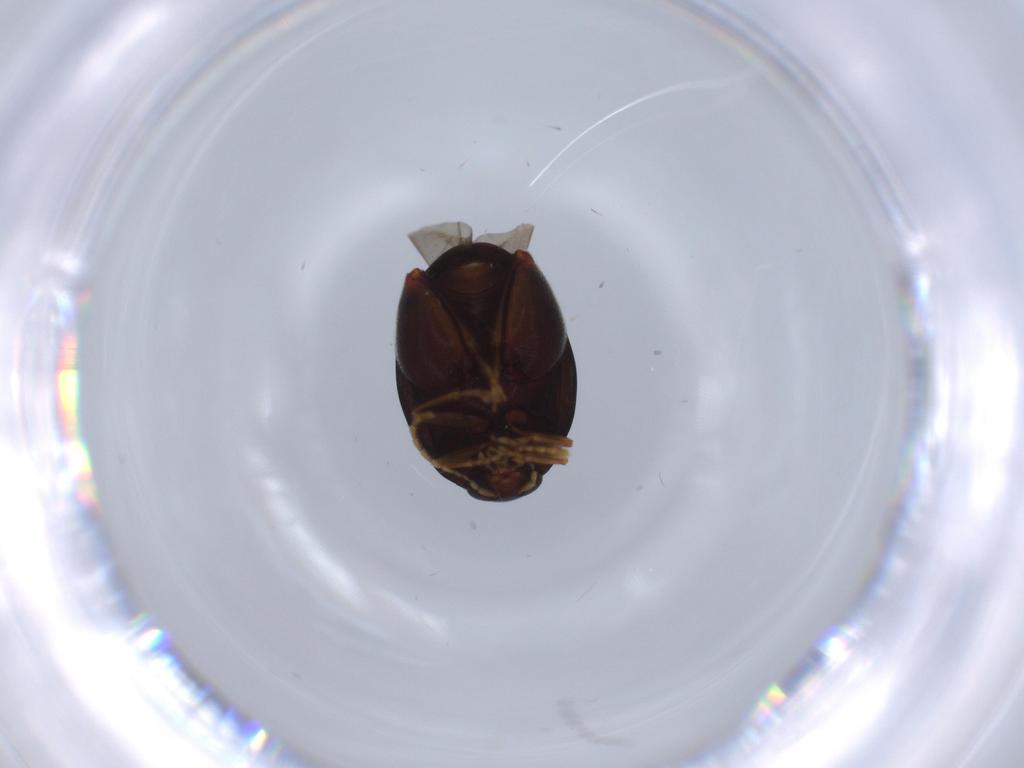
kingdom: Animalia
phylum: Arthropoda
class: Insecta
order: Coleoptera
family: Chrysomelidae
